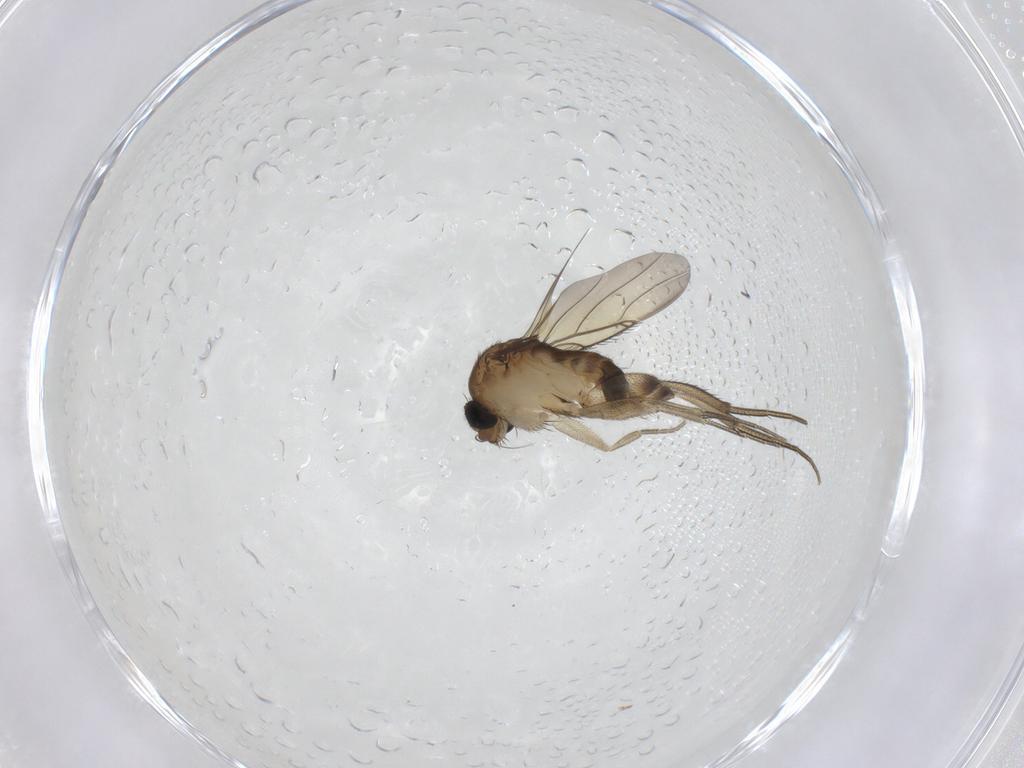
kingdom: Animalia
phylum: Arthropoda
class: Insecta
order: Diptera
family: Phoridae
